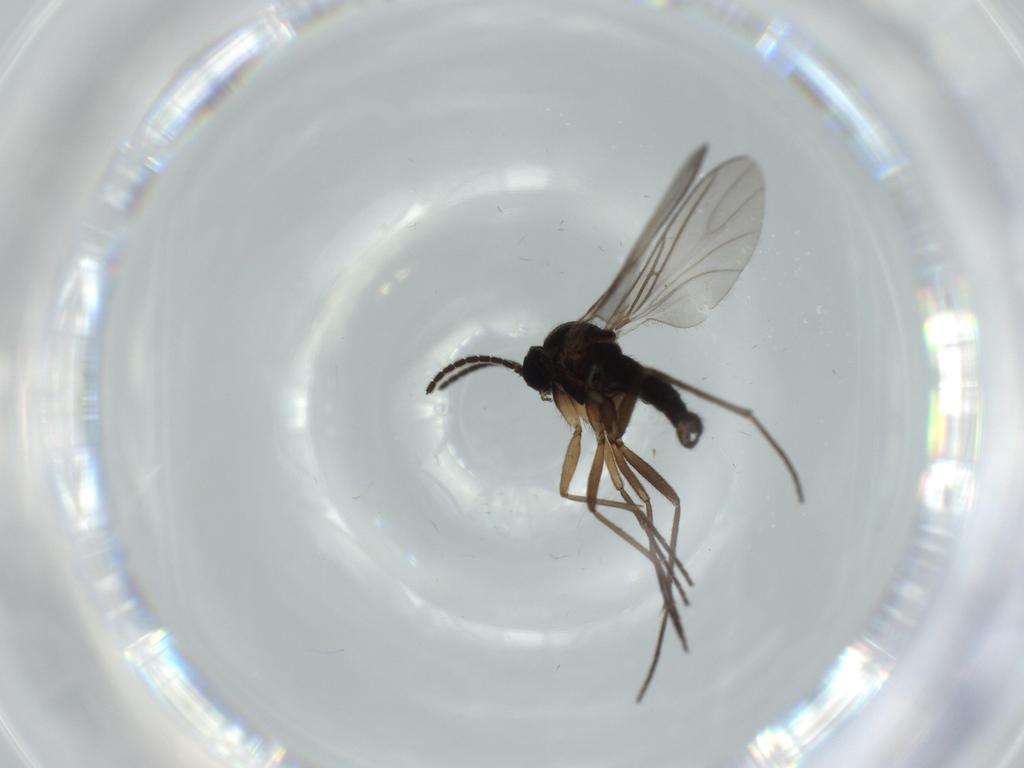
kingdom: Animalia
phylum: Arthropoda
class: Insecta
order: Diptera
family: Sciaridae
